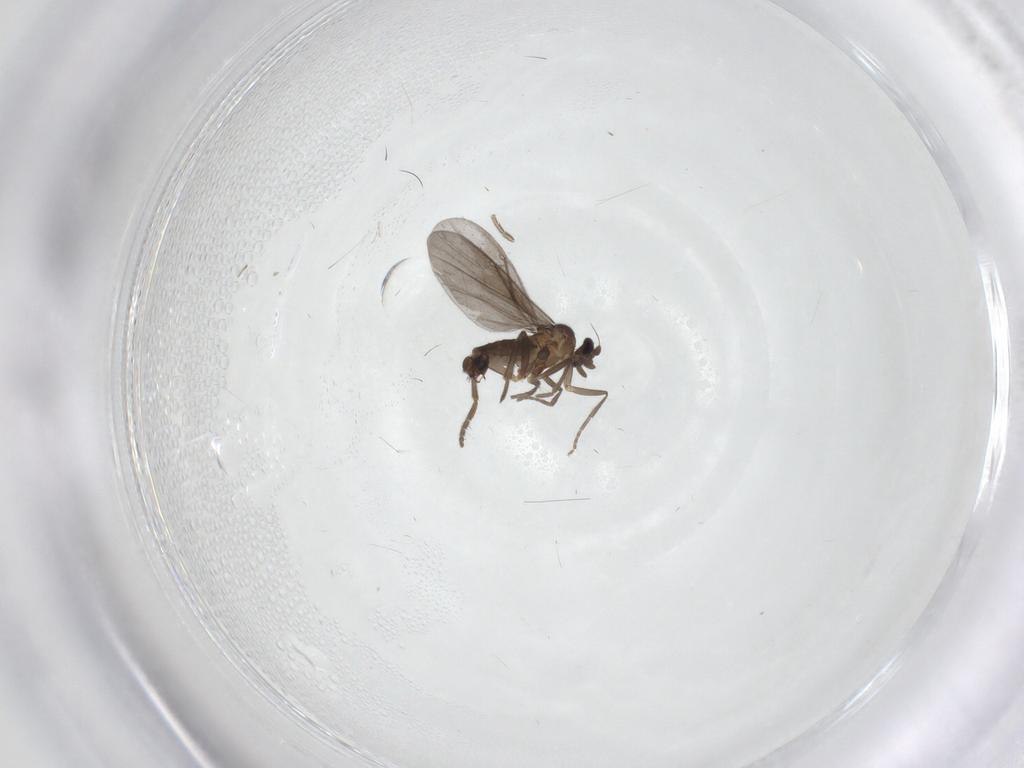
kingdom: Animalia
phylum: Arthropoda
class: Insecta
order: Diptera
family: Phoridae
